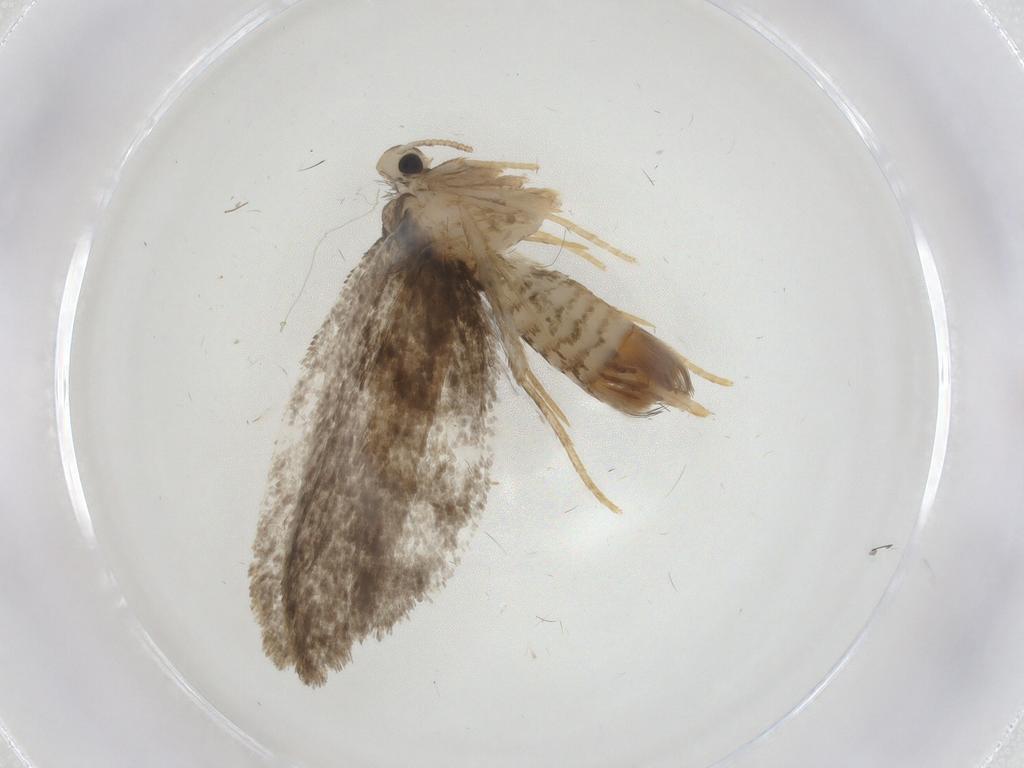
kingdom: Animalia
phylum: Arthropoda
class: Insecta
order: Lepidoptera
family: Psychidae
